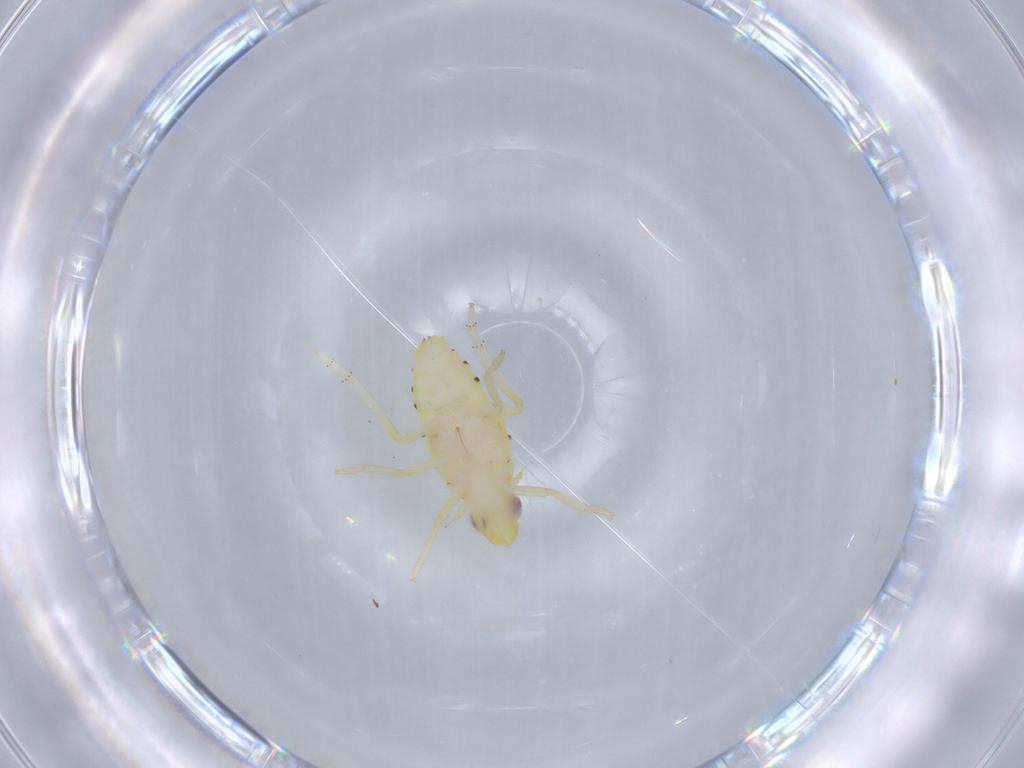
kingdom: Animalia
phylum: Arthropoda
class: Insecta
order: Hemiptera
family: Tropiduchidae
